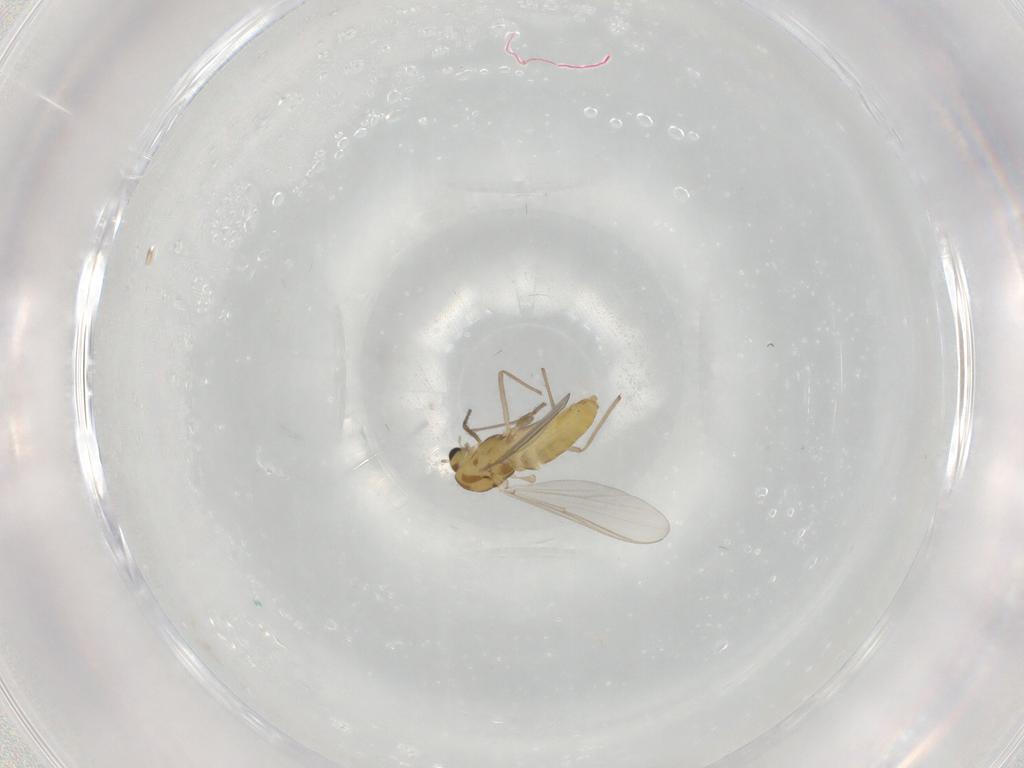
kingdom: Animalia
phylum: Arthropoda
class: Insecta
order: Diptera
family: Chironomidae
